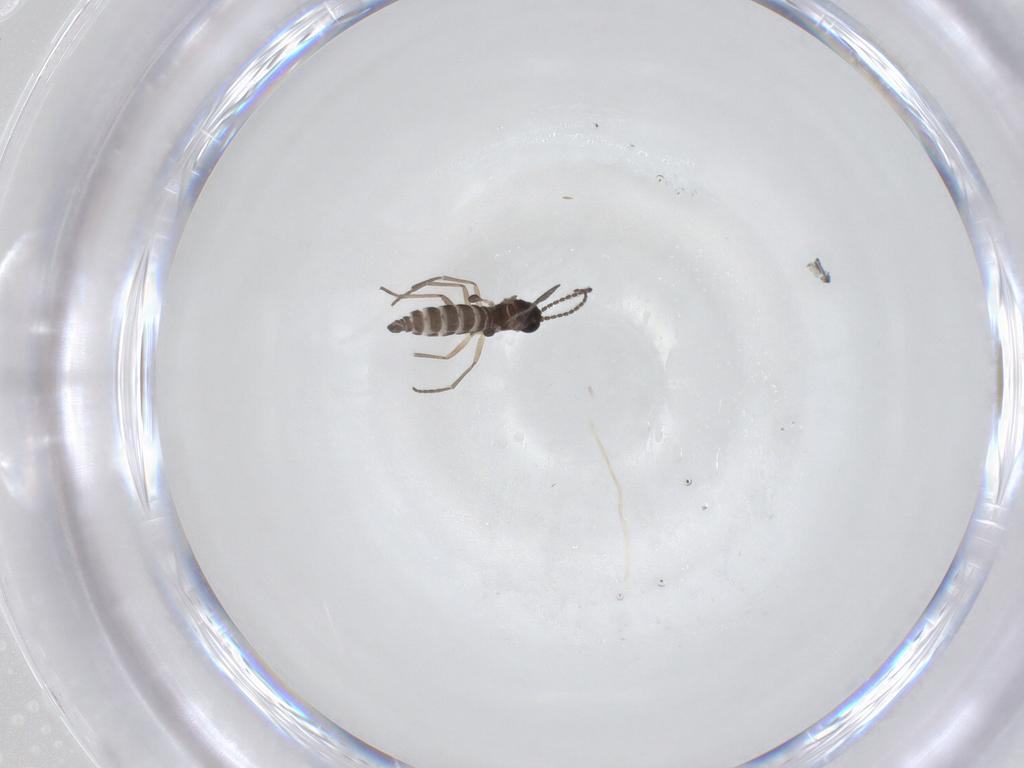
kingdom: Animalia
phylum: Arthropoda
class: Insecta
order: Diptera
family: Sciaridae
